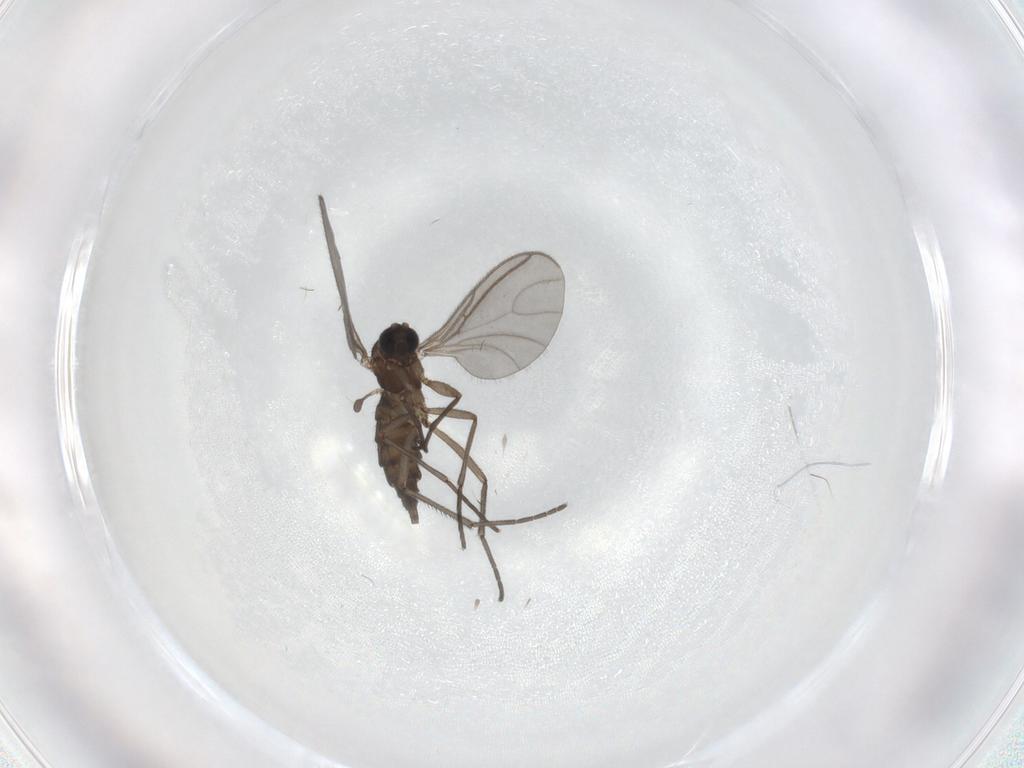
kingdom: Animalia
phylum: Arthropoda
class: Insecta
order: Diptera
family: Sciaridae
